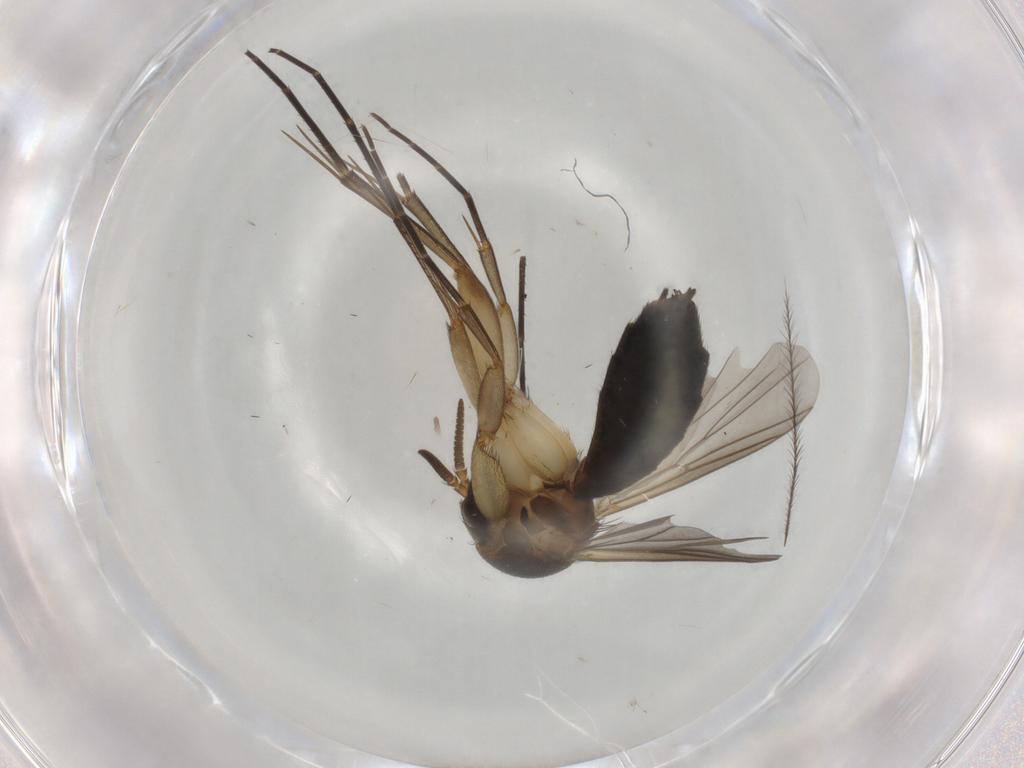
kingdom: Animalia
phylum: Arthropoda
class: Insecta
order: Diptera
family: Mycetophilidae
